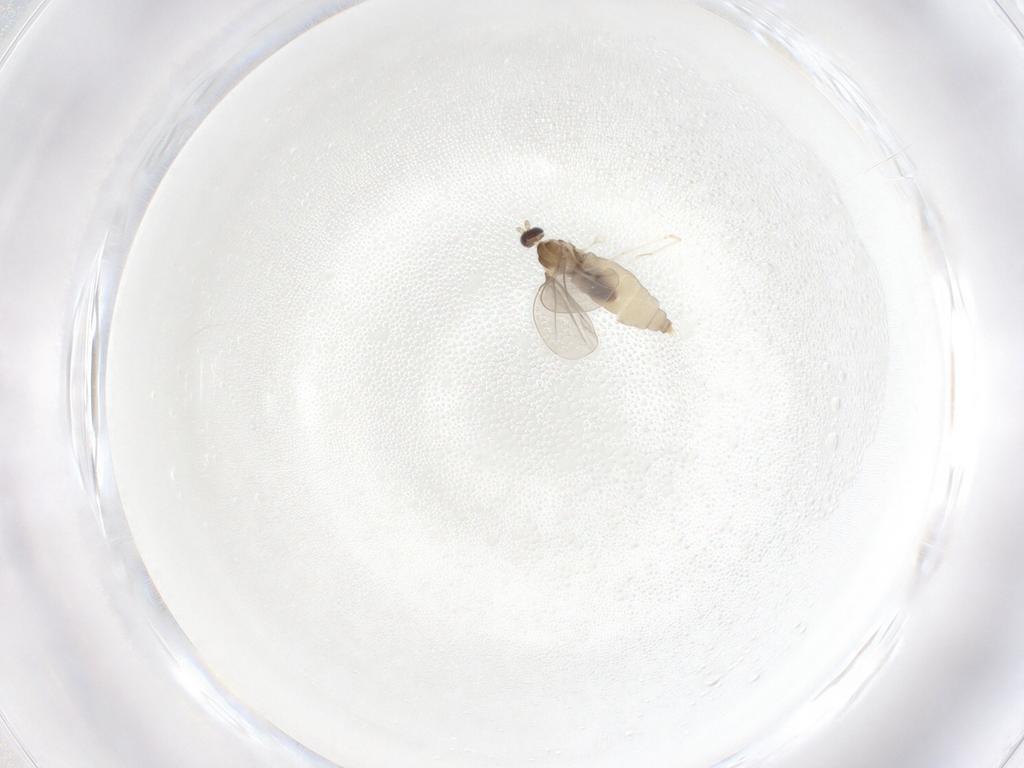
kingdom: Animalia
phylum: Arthropoda
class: Insecta
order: Diptera
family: Cecidomyiidae
